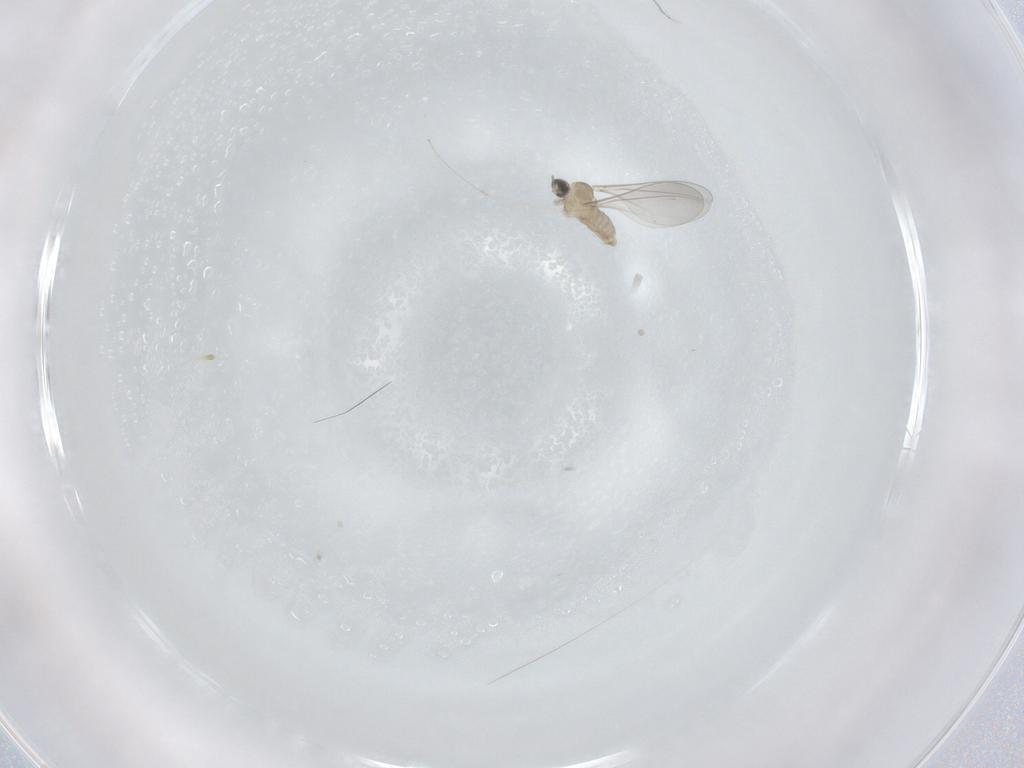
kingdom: Animalia
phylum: Arthropoda
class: Insecta
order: Diptera
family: Cecidomyiidae
